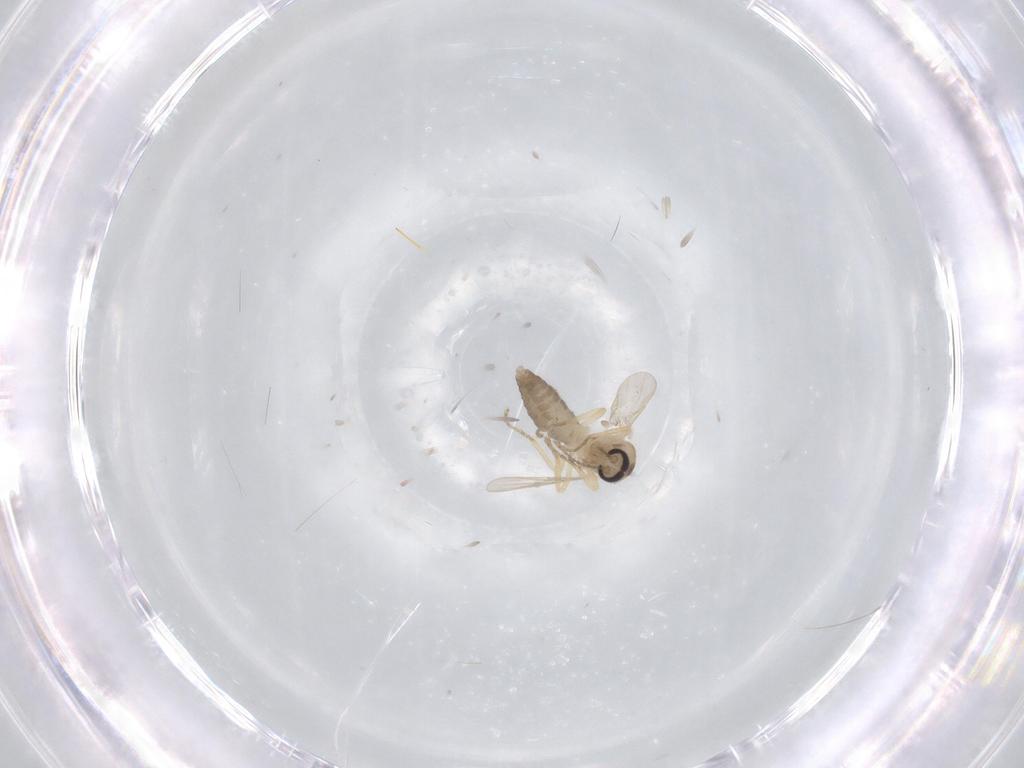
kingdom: Animalia
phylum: Arthropoda
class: Insecta
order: Diptera
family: Ceratopogonidae
